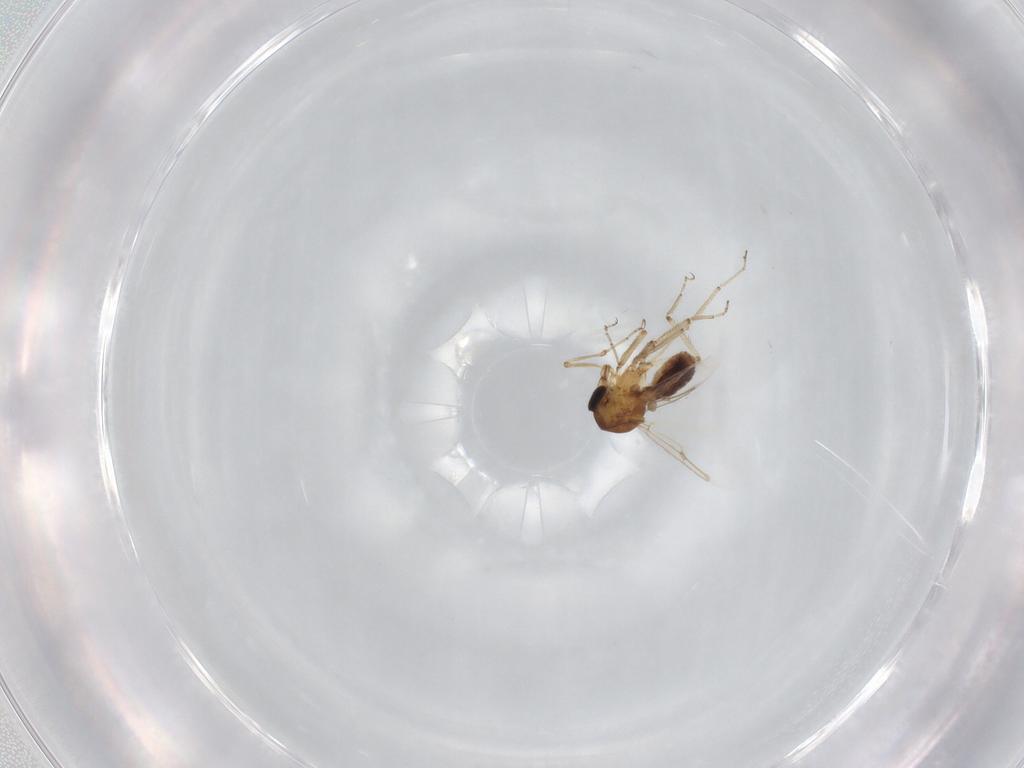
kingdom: Animalia
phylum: Arthropoda
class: Insecta
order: Diptera
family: Ceratopogonidae
